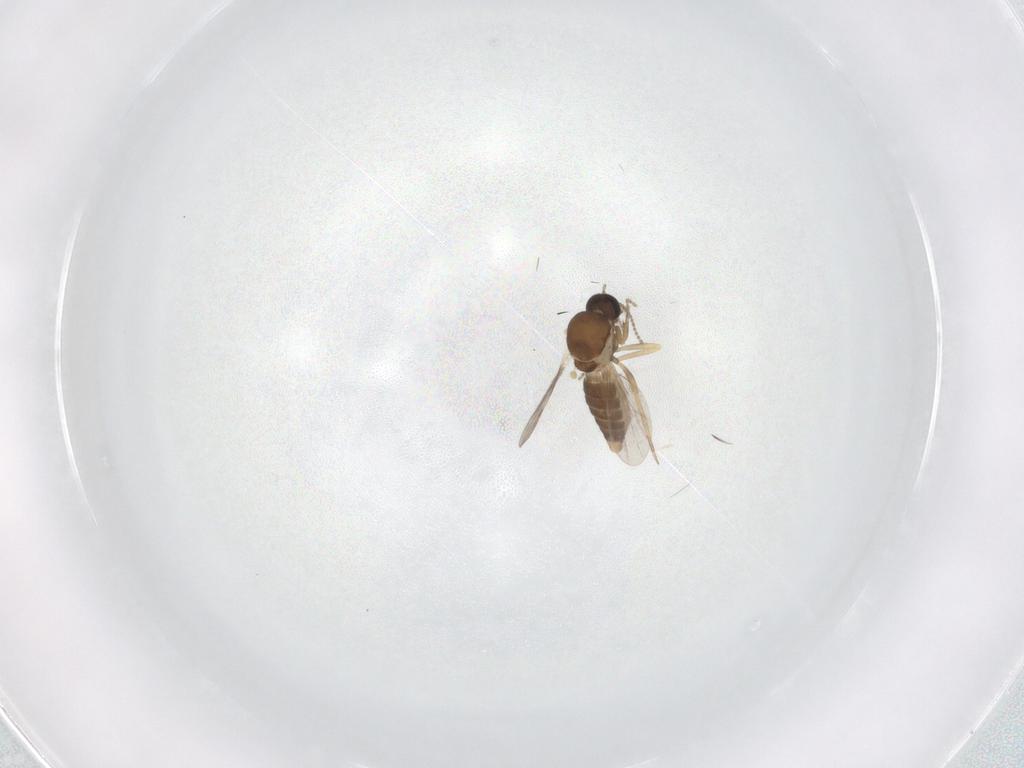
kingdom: Animalia
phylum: Arthropoda
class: Insecta
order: Diptera
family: Ceratopogonidae
